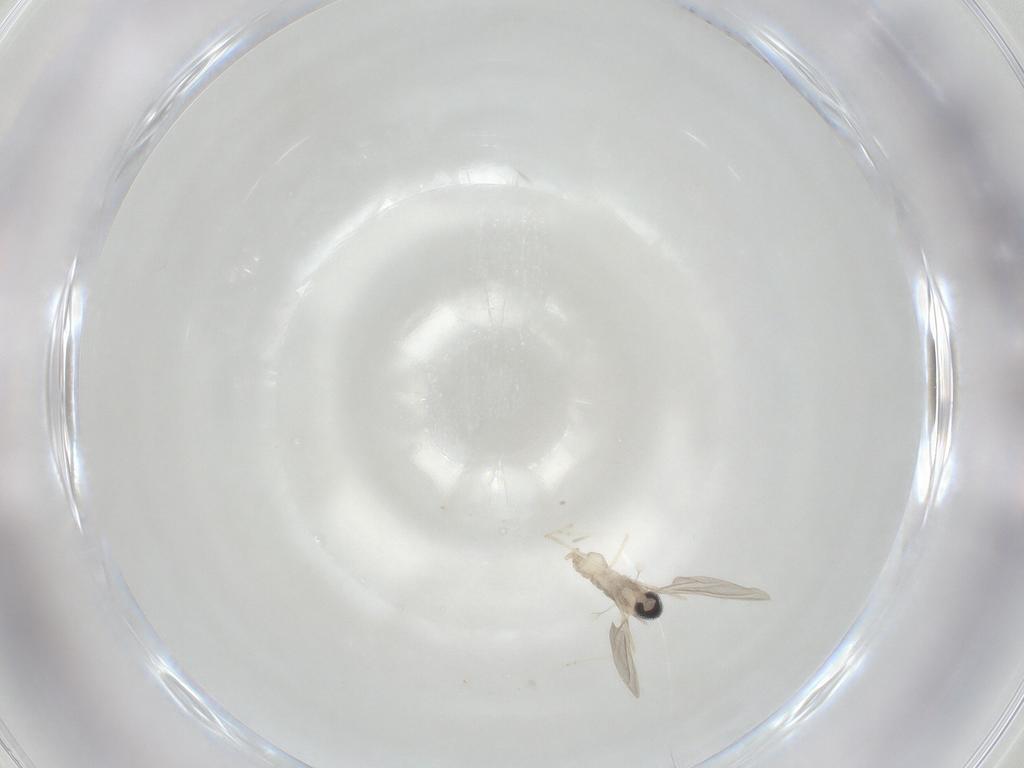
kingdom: Animalia
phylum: Arthropoda
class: Insecta
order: Diptera
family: Cecidomyiidae
